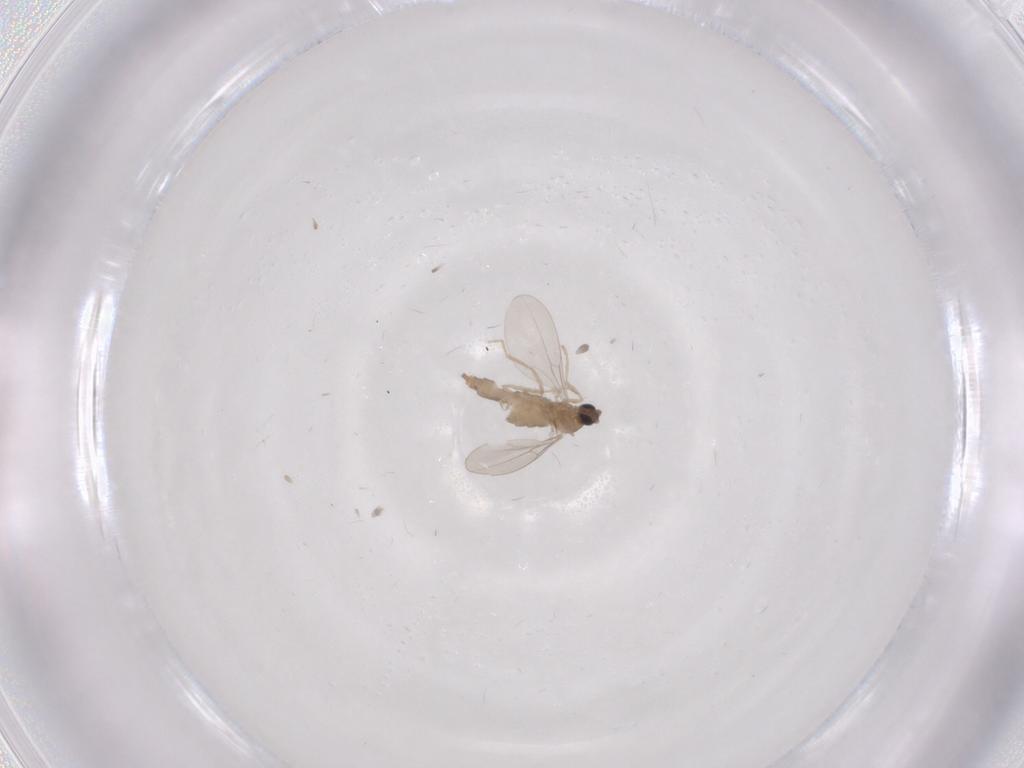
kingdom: Animalia
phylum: Arthropoda
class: Insecta
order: Diptera
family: Cecidomyiidae
